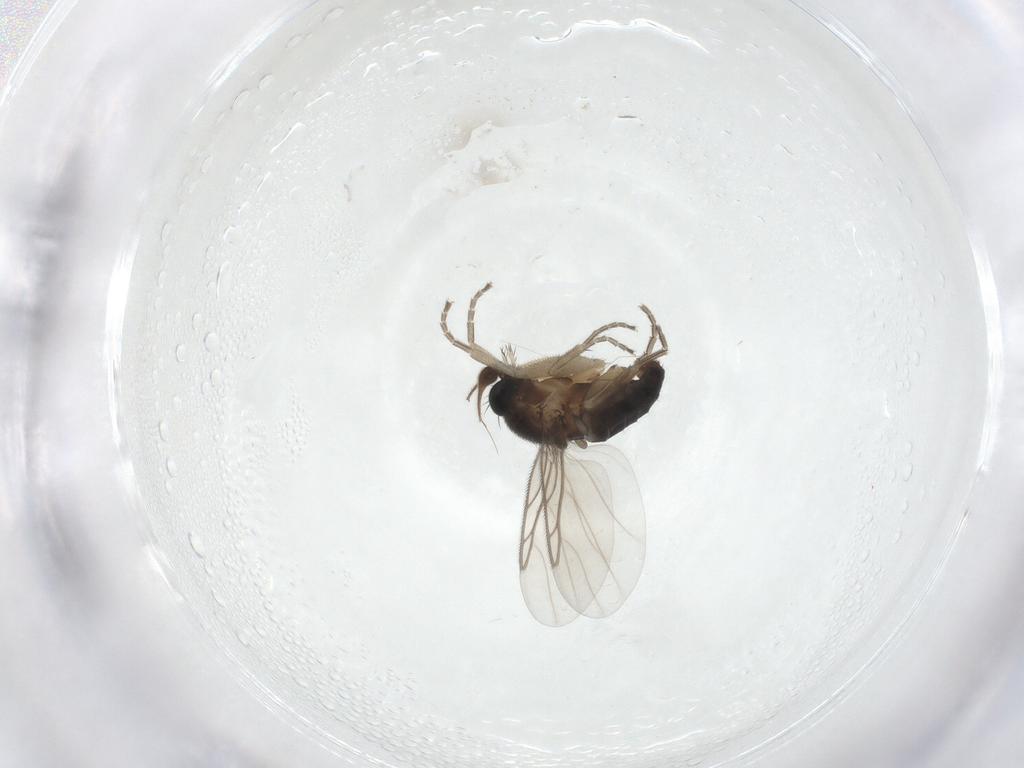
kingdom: Animalia
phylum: Arthropoda
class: Insecta
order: Diptera
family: Phoridae
